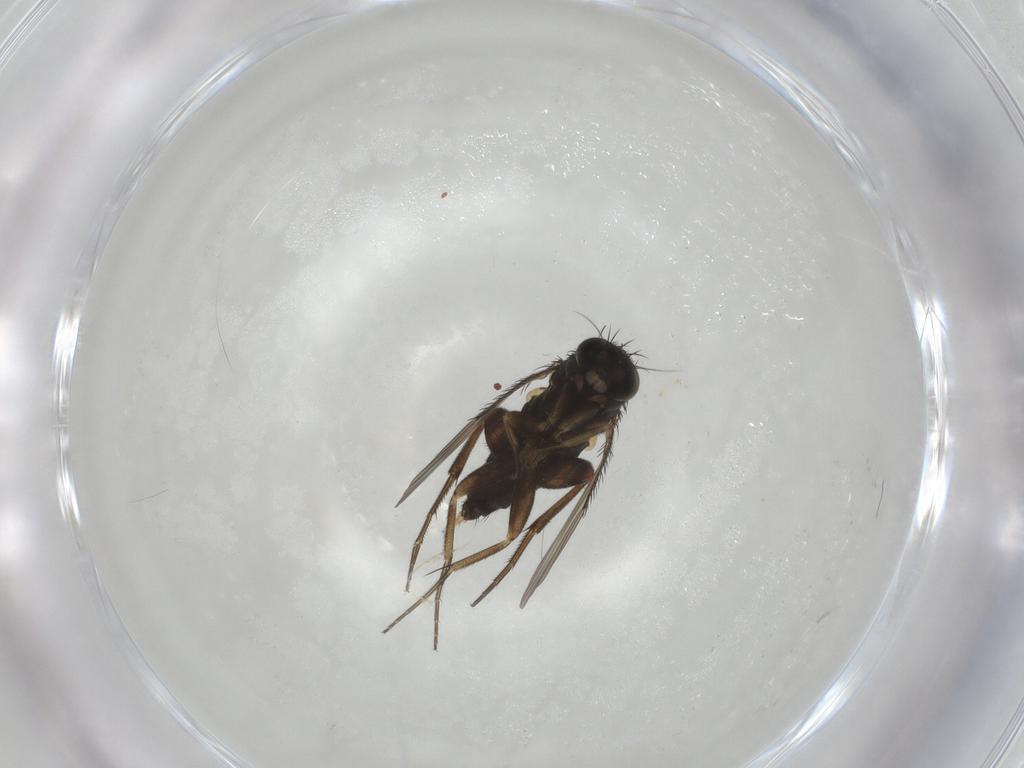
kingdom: Animalia
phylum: Arthropoda
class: Insecta
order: Diptera
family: Phoridae
